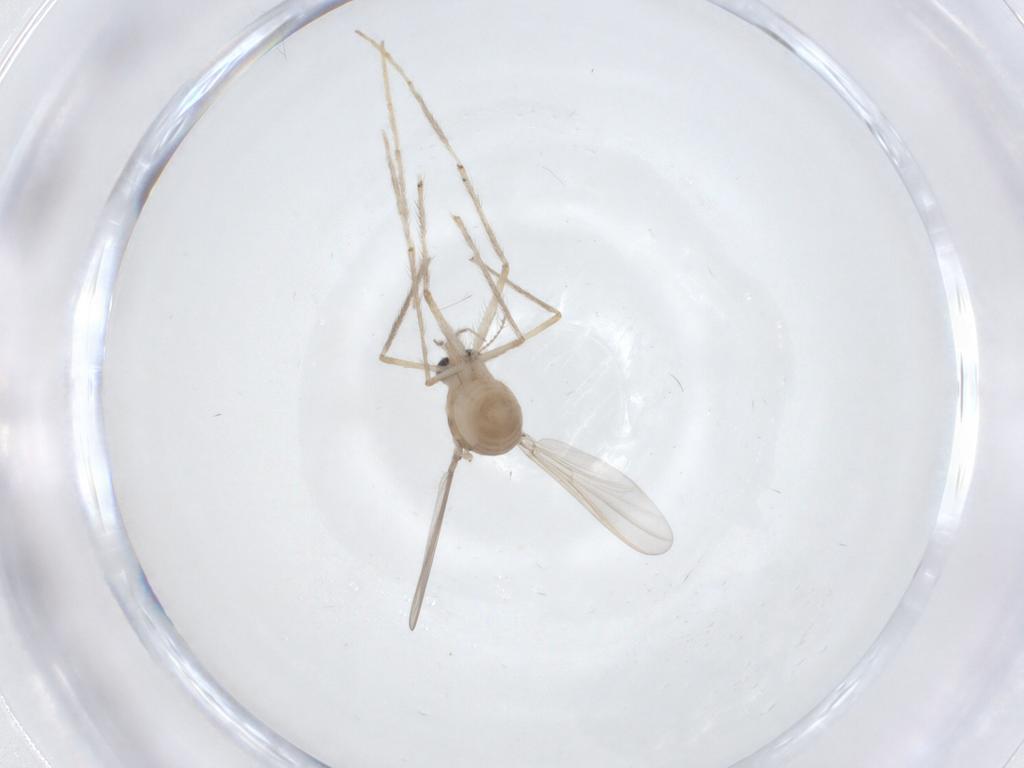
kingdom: Animalia
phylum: Arthropoda
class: Insecta
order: Diptera
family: Chironomidae
